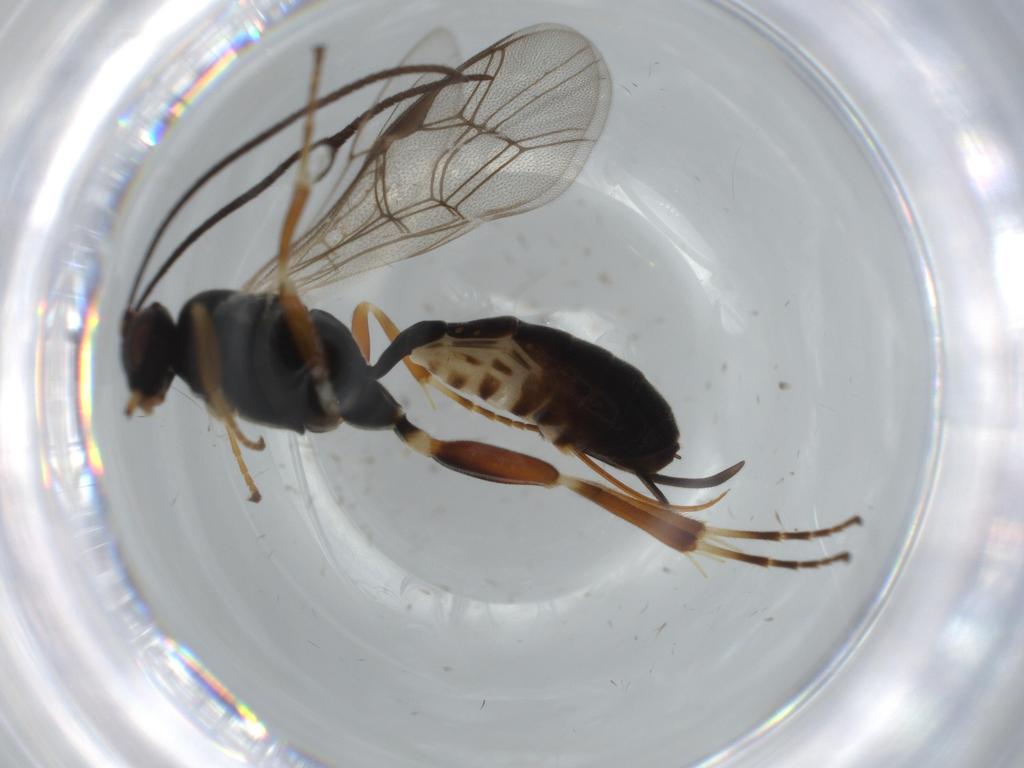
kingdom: Animalia
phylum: Arthropoda
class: Insecta
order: Hymenoptera
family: Ichneumonidae
